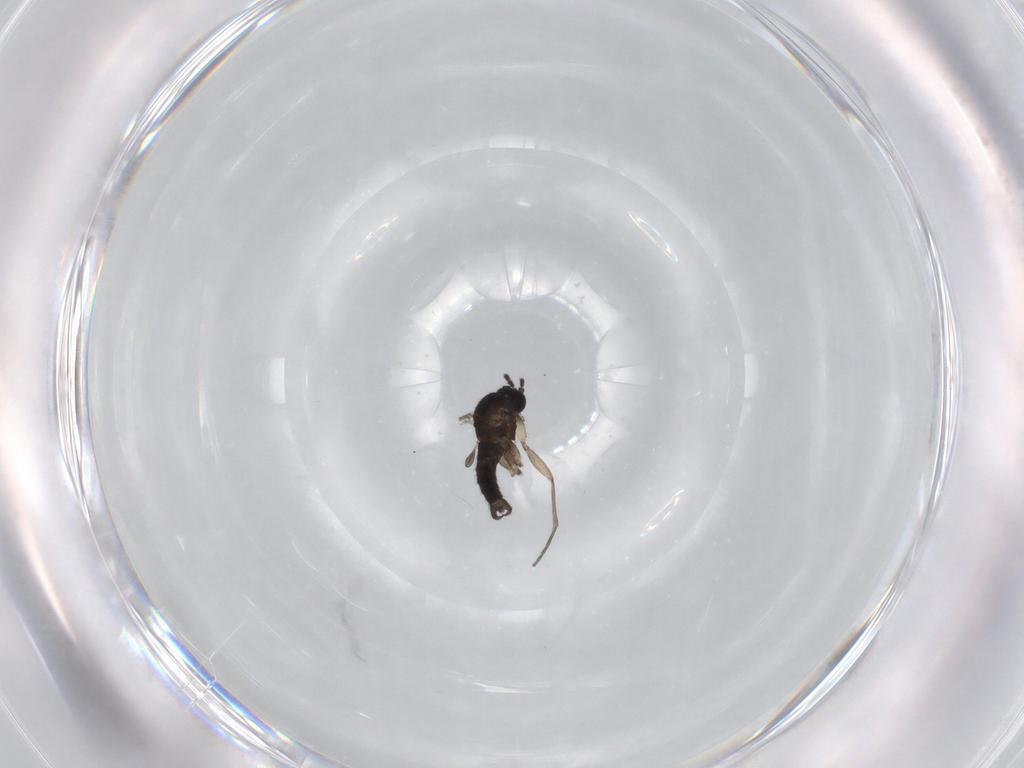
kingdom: Animalia
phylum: Arthropoda
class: Insecta
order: Diptera
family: Sciaridae
